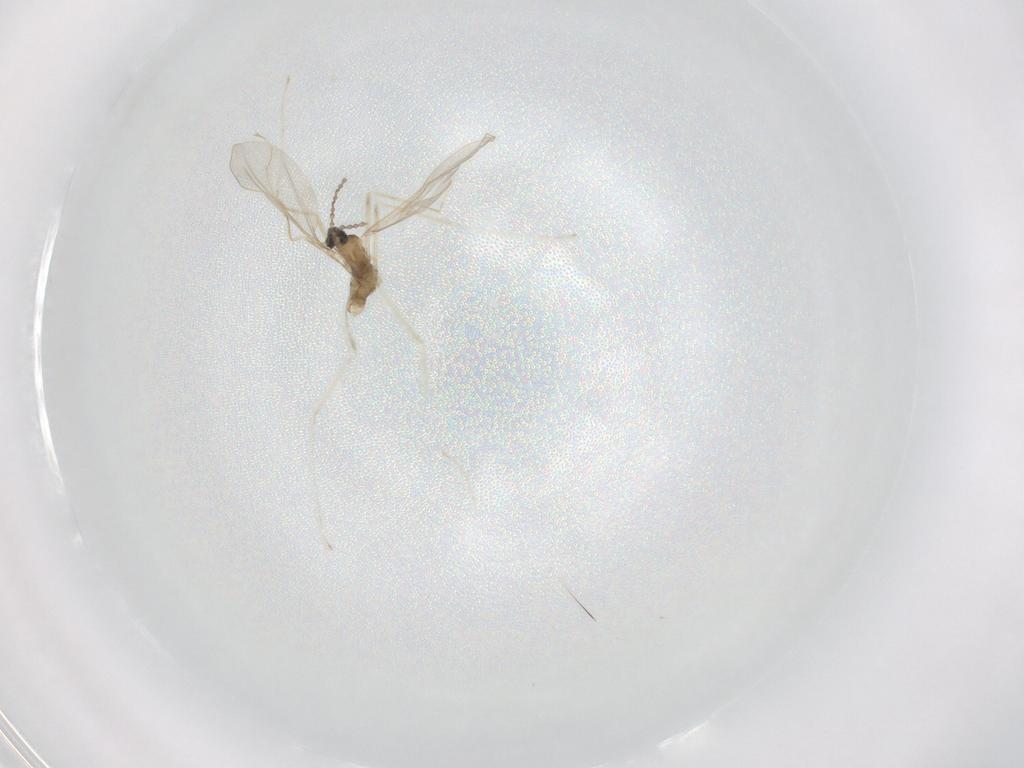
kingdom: Animalia
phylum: Arthropoda
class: Insecta
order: Diptera
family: Cecidomyiidae
